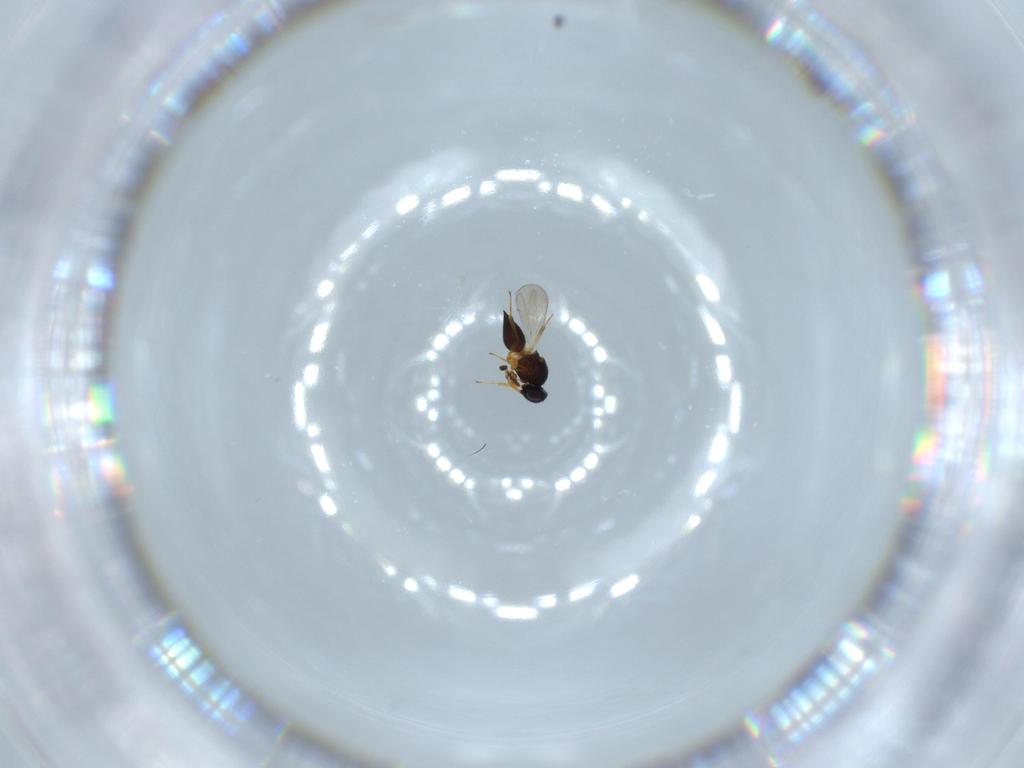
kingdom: Animalia
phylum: Arthropoda
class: Insecta
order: Hymenoptera
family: Platygastridae
